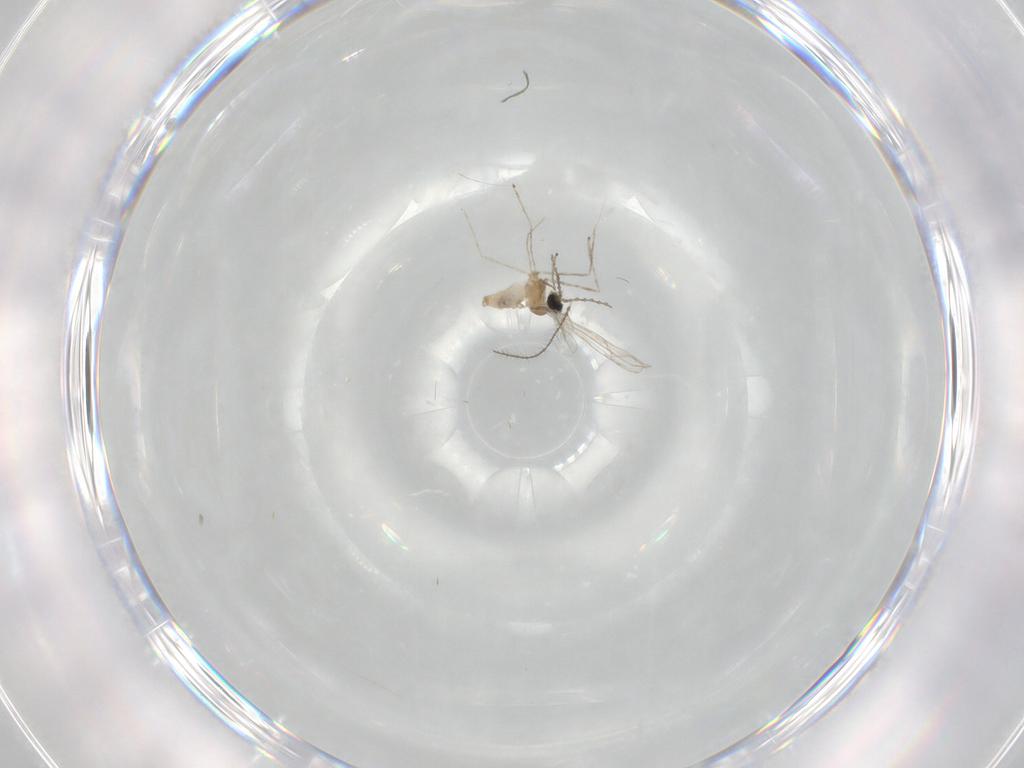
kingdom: Animalia
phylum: Arthropoda
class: Insecta
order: Diptera
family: Cecidomyiidae
